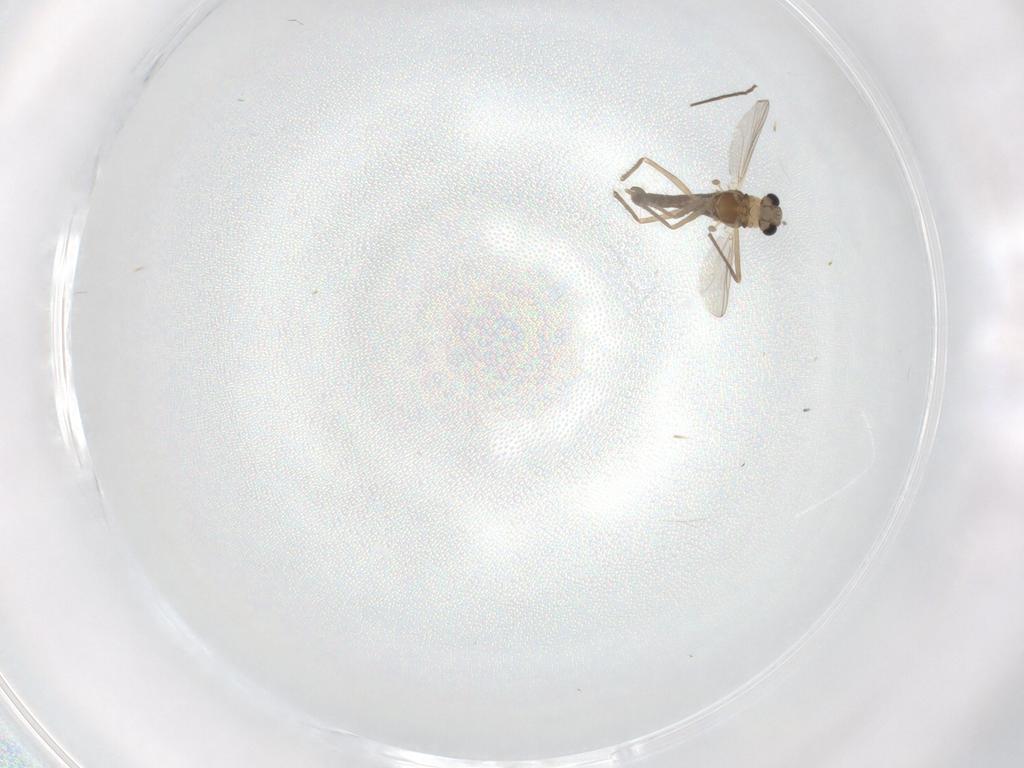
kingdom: Animalia
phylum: Arthropoda
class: Insecta
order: Diptera
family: Chironomidae
